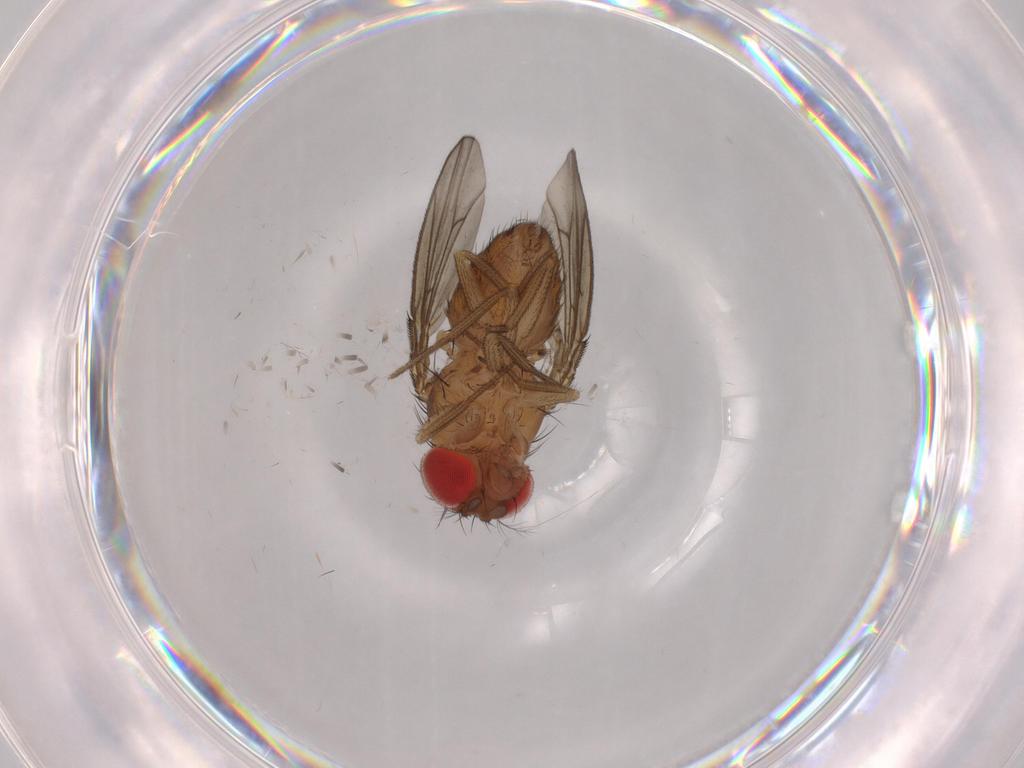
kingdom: Animalia
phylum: Arthropoda
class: Insecta
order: Diptera
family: Drosophilidae
